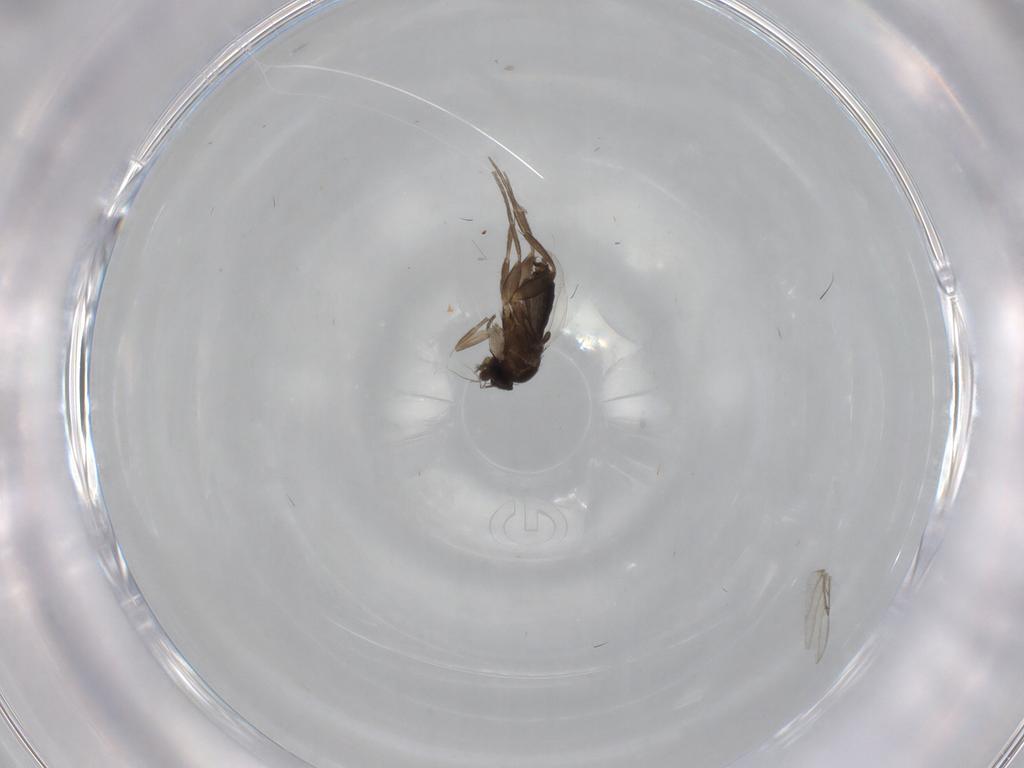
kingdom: Animalia
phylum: Arthropoda
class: Insecta
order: Diptera
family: Phoridae
